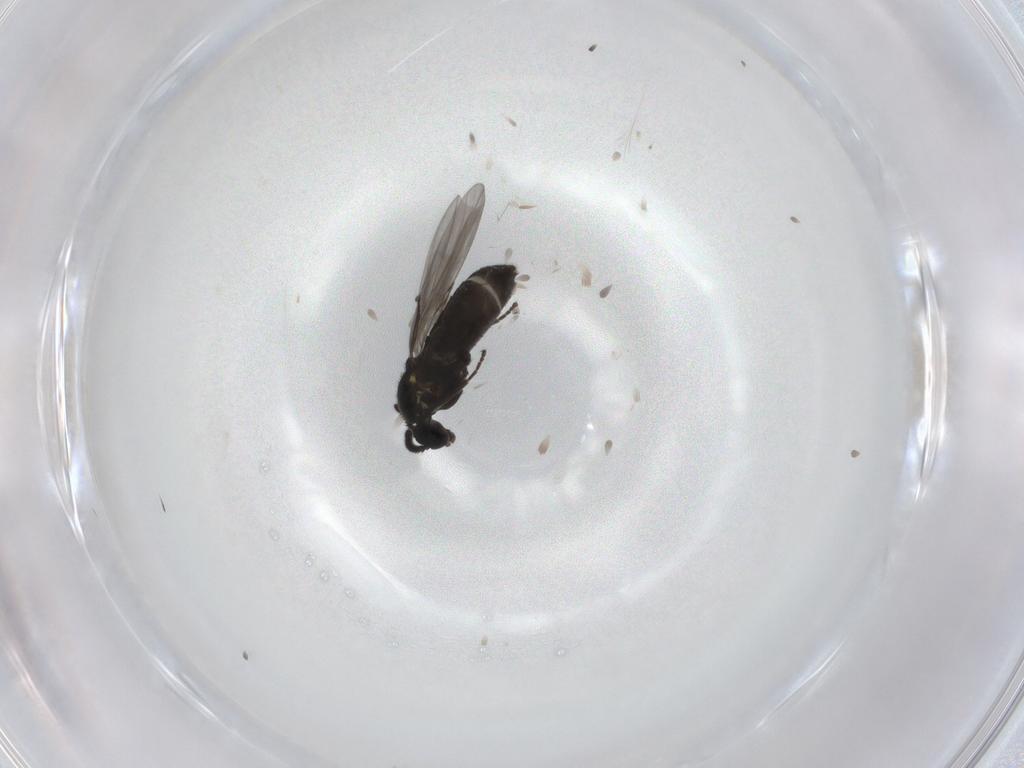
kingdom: Animalia
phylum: Arthropoda
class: Insecta
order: Diptera
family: Scatopsidae
